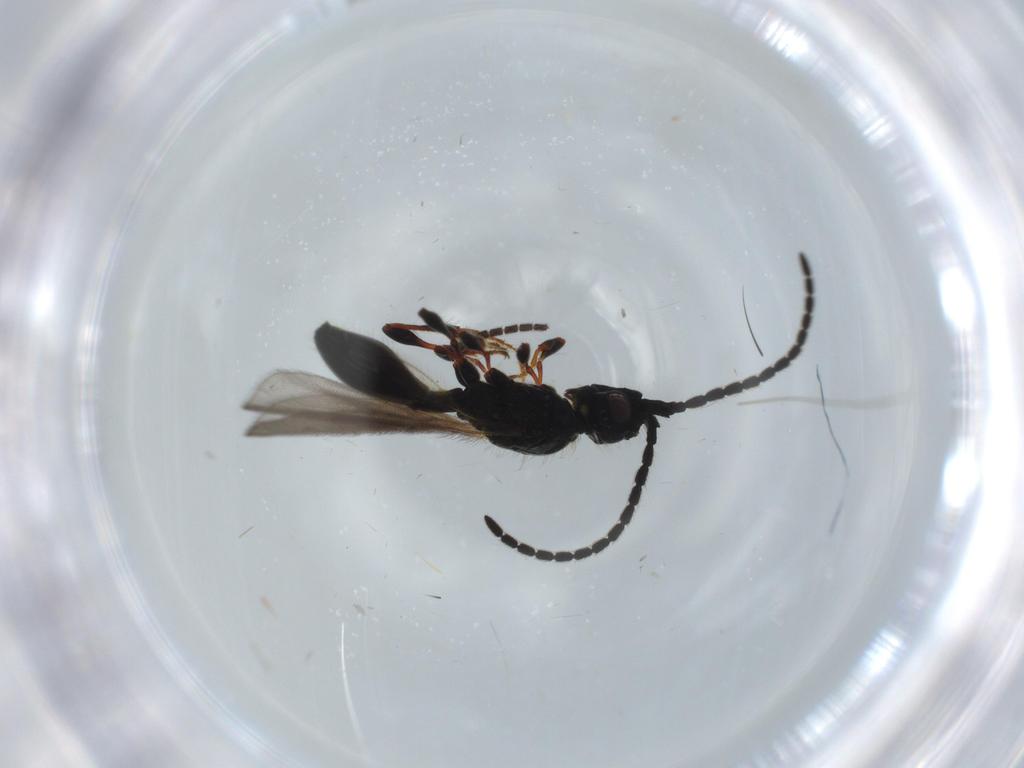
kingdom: Animalia
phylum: Arthropoda
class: Insecta
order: Hymenoptera
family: Diapriidae
